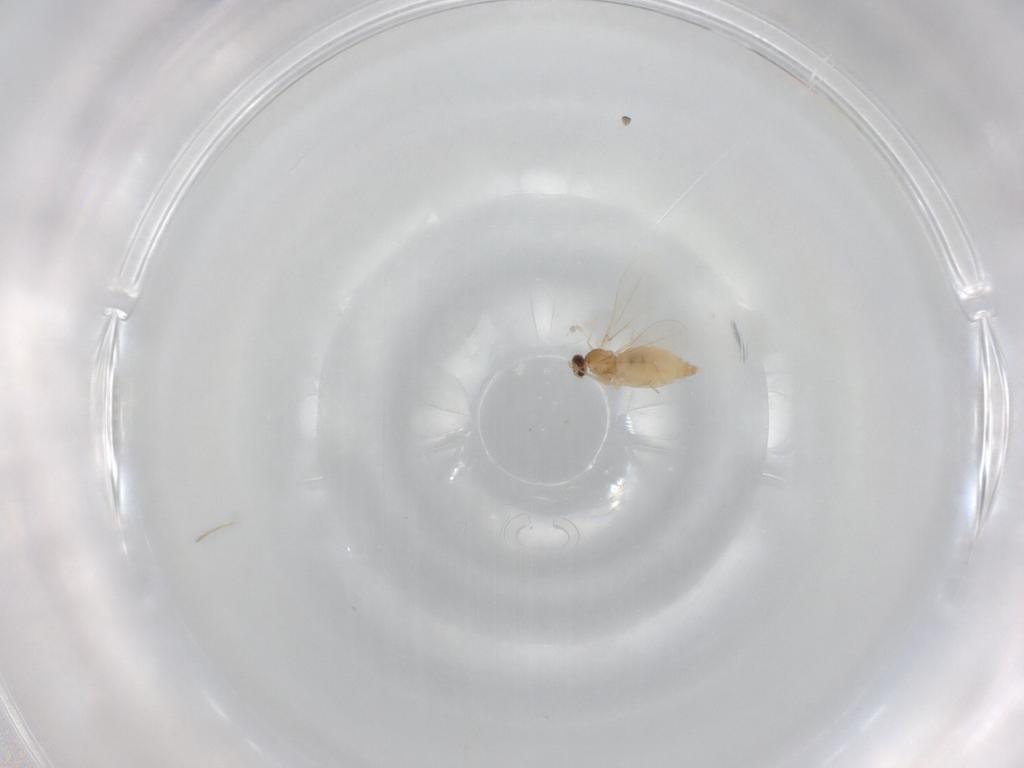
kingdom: Animalia
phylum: Arthropoda
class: Insecta
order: Diptera
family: Cecidomyiidae
